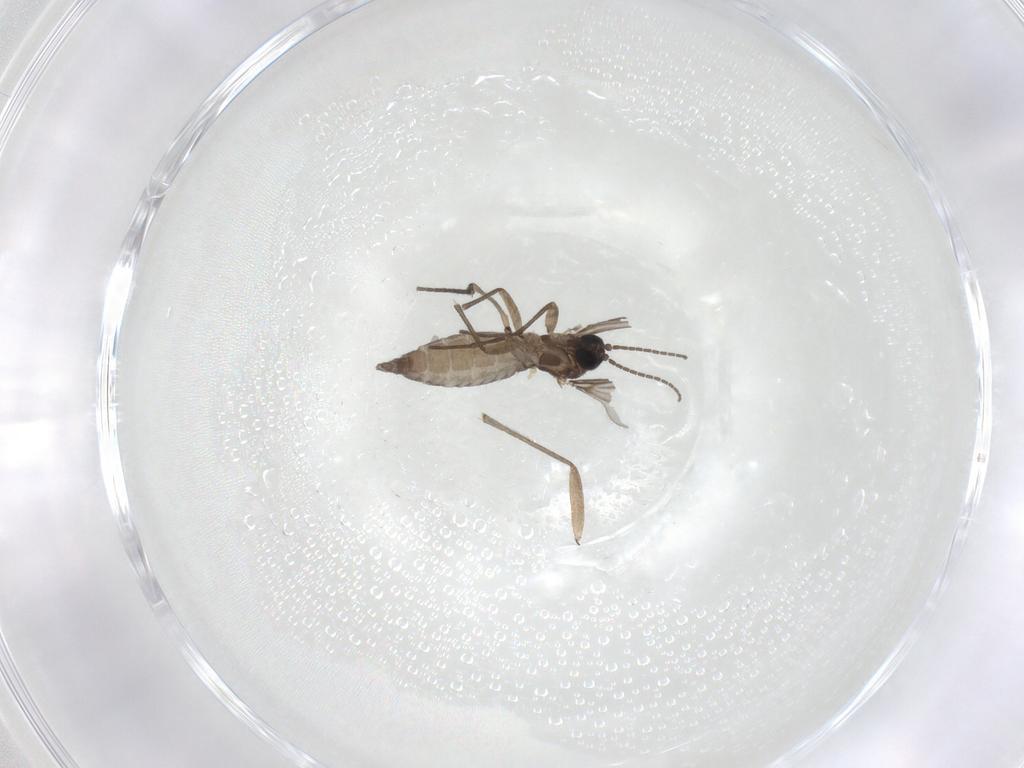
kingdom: Animalia
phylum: Arthropoda
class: Insecta
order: Diptera
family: Sciaridae
